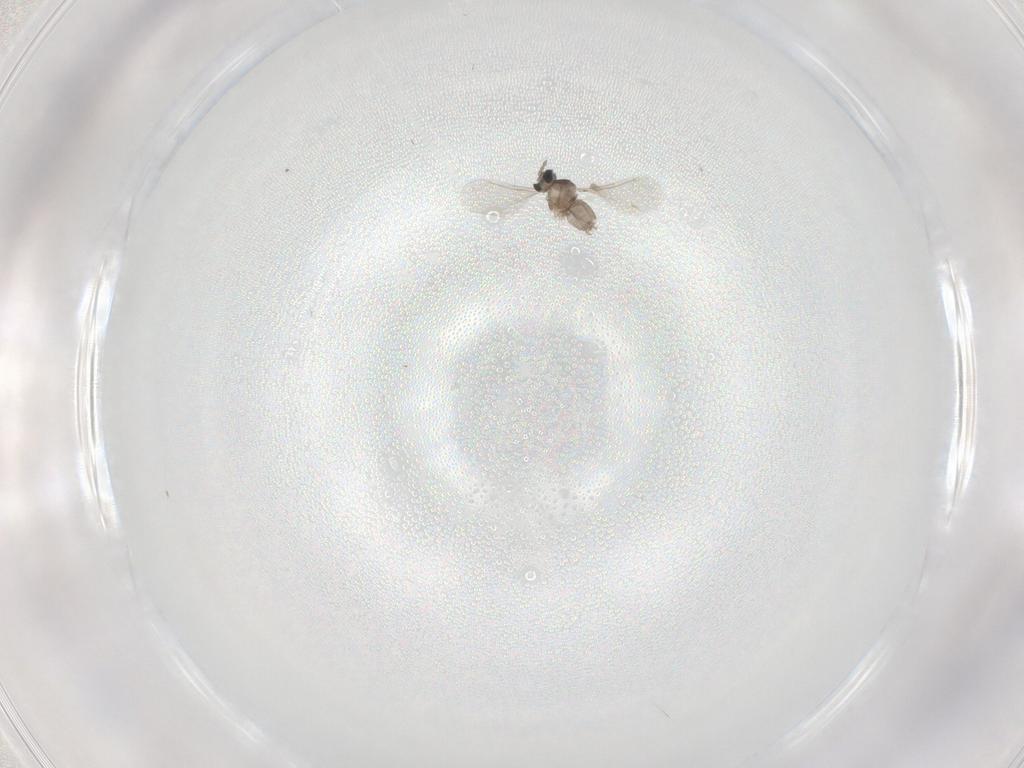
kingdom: Animalia
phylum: Arthropoda
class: Insecta
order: Diptera
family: Cecidomyiidae
